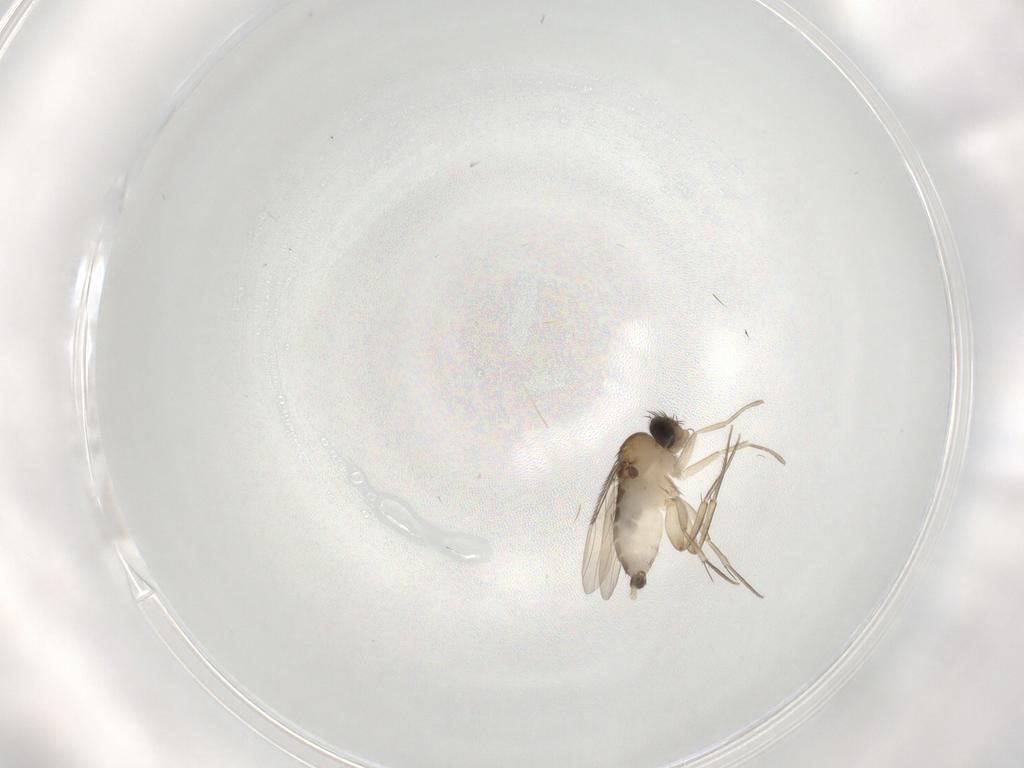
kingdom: Animalia
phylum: Arthropoda
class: Insecta
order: Diptera
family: Phoridae
